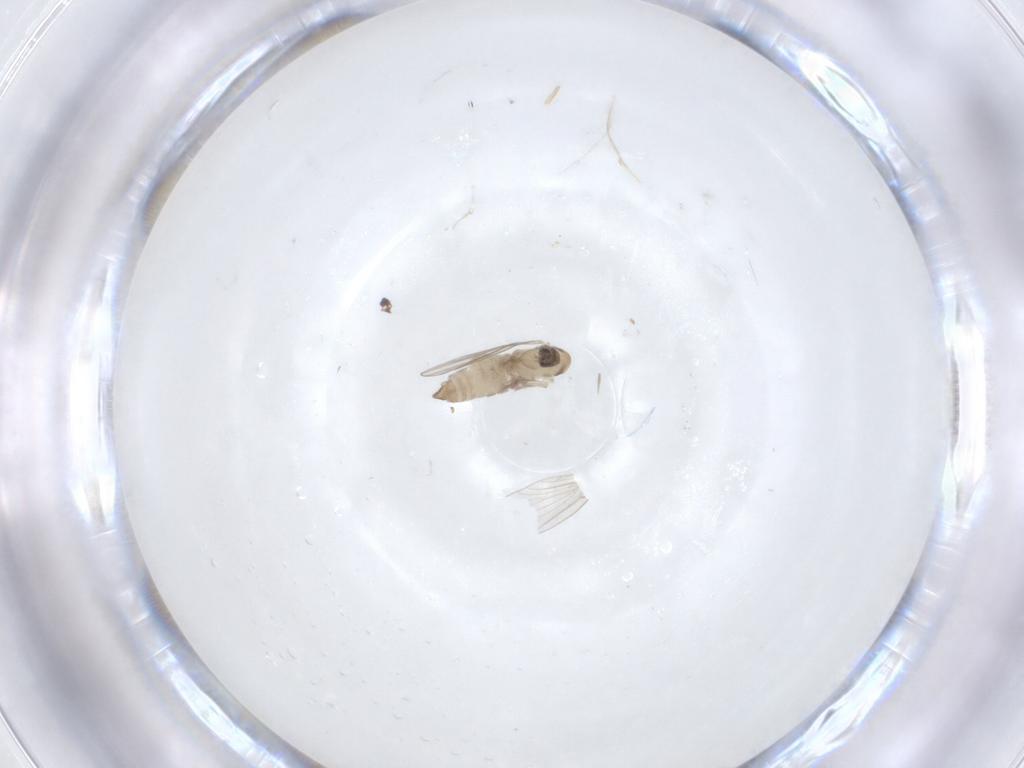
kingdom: Animalia
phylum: Arthropoda
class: Insecta
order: Diptera
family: Psychodidae
